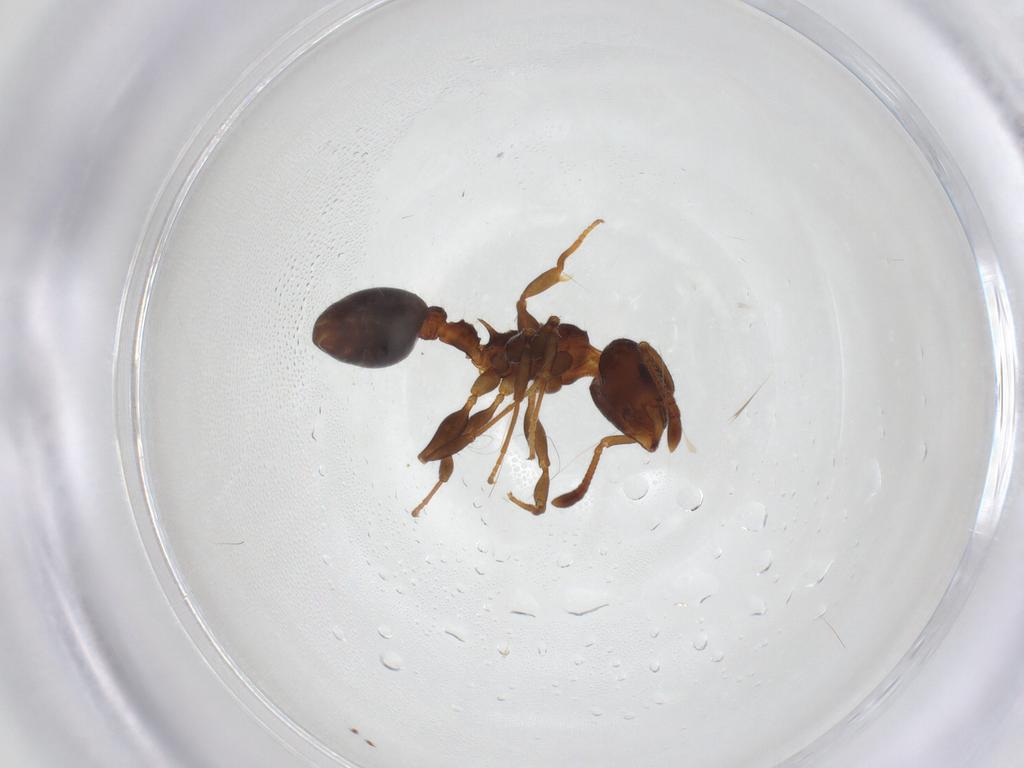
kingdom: Animalia
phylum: Arthropoda
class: Insecta
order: Hymenoptera
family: Formicidae
